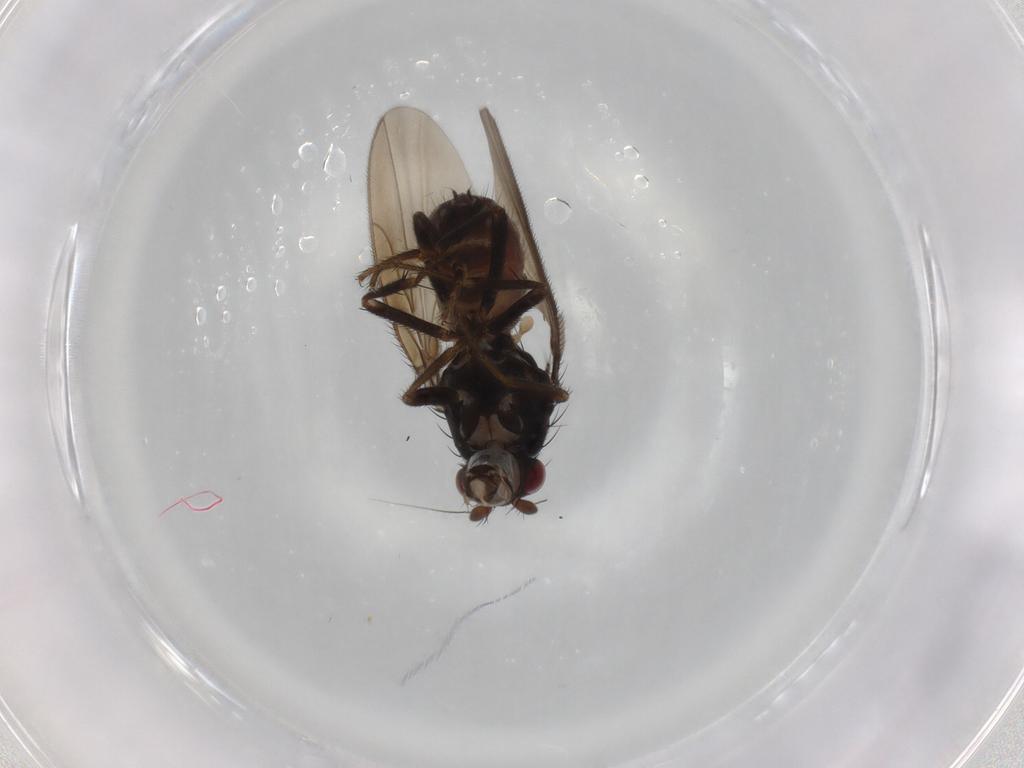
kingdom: Animalia
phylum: Arthropoda
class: Insecta
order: Diptera
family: Sphaeroceridae
